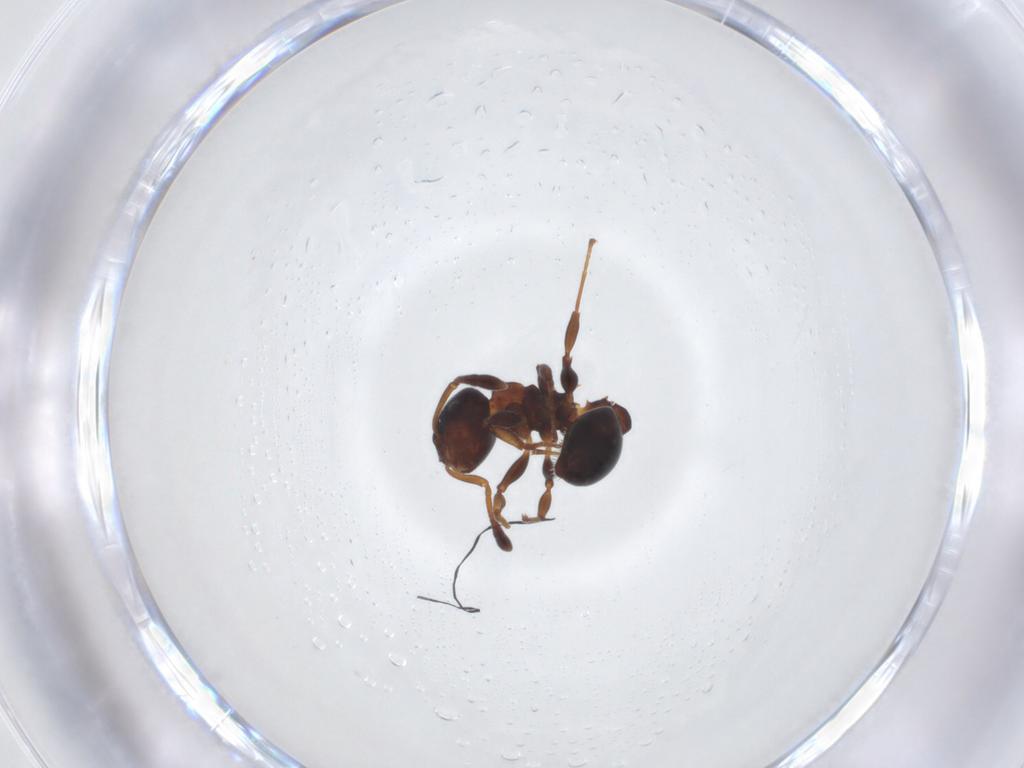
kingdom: Animalia
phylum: Arthropoda
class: Insecta
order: Hymenoptera
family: Formicidae
